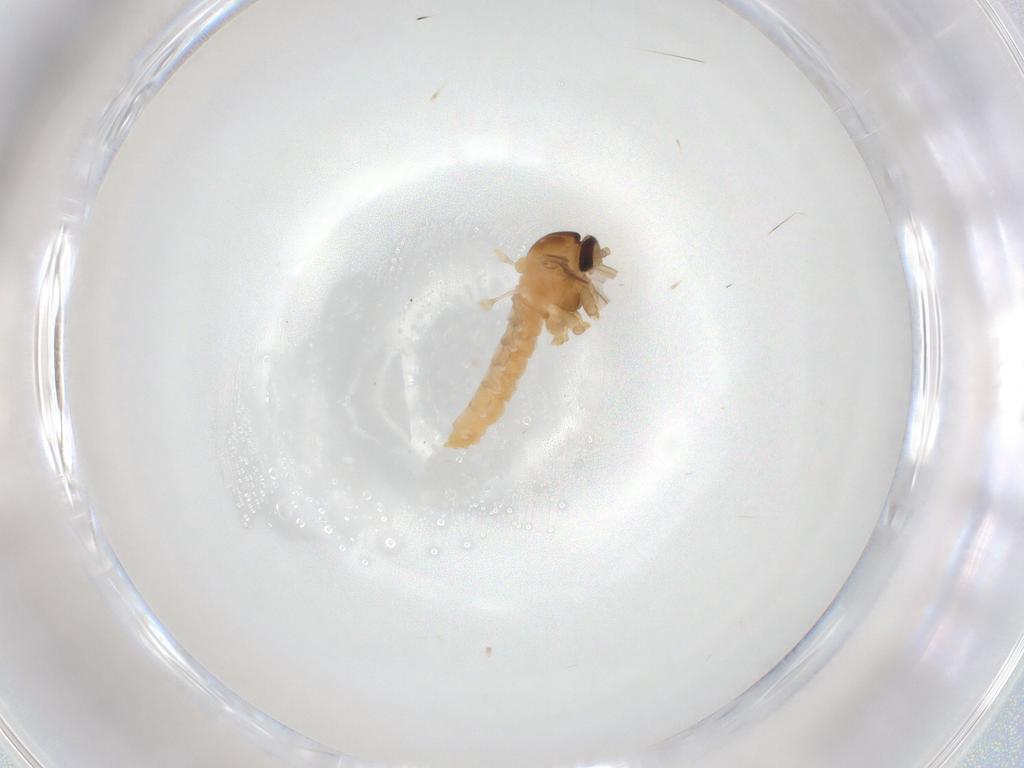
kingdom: Animalia
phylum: Arthropoda
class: Insecta
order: Diptera
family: Cecidomyiidae
